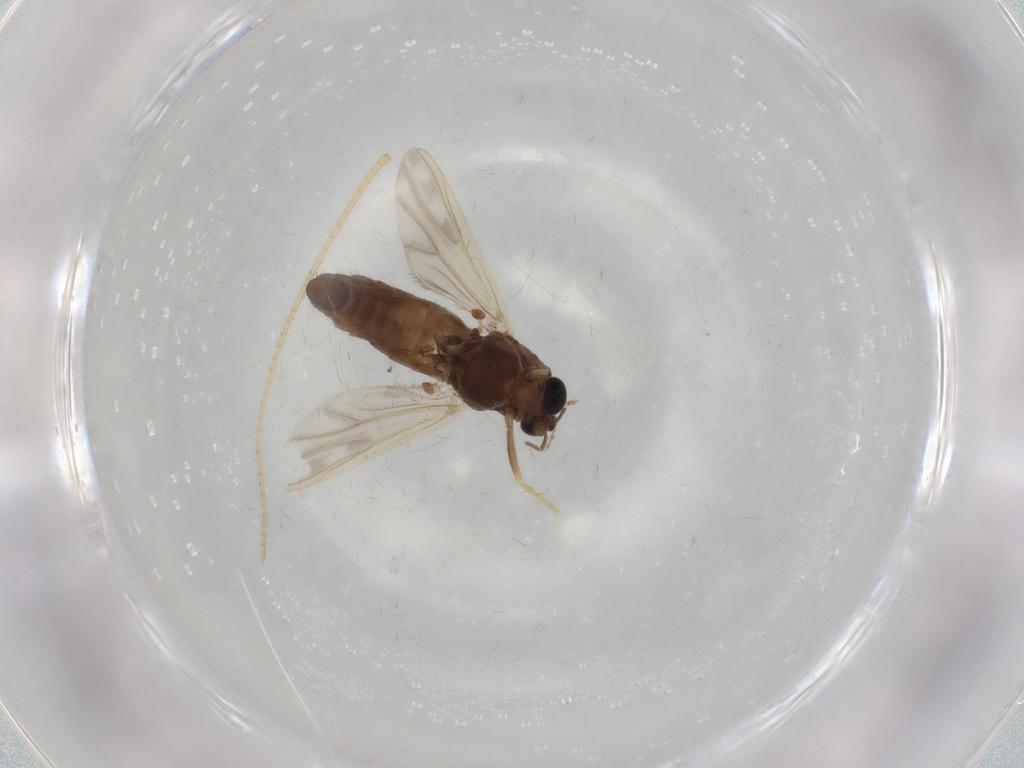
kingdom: Animalia
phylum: Arthropoda
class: Insecta
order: Diptera
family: Chironomidae
